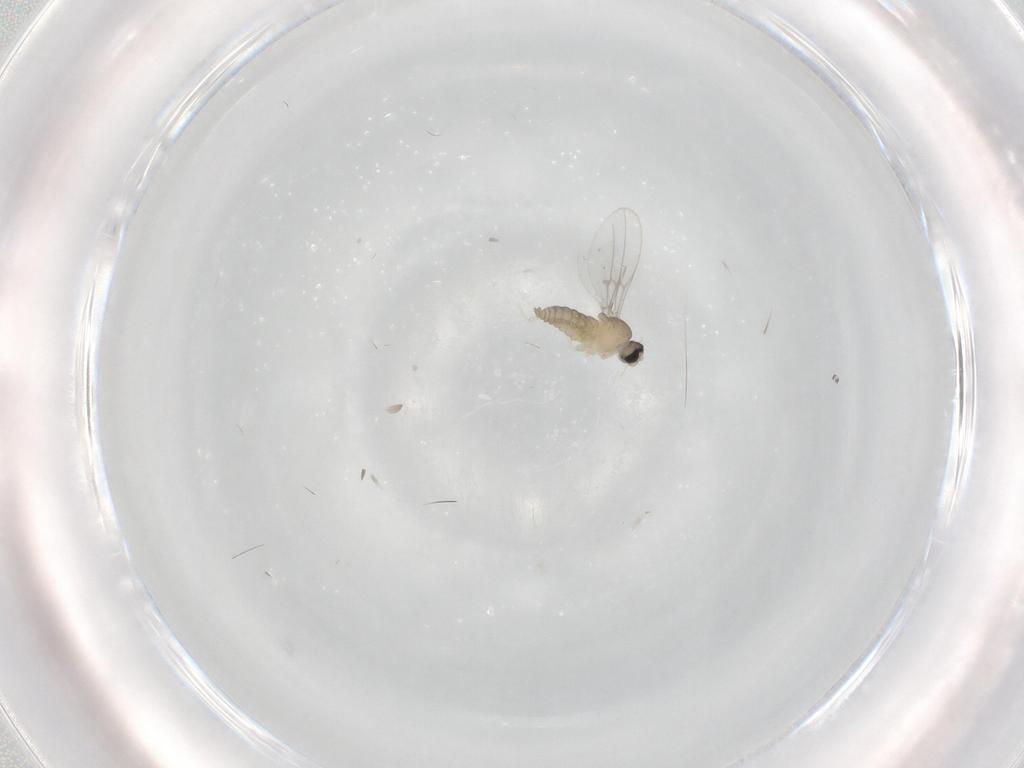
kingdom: Animalia
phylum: Arthropoda
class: Insecta
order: Diptera
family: Cecidomyiidae
